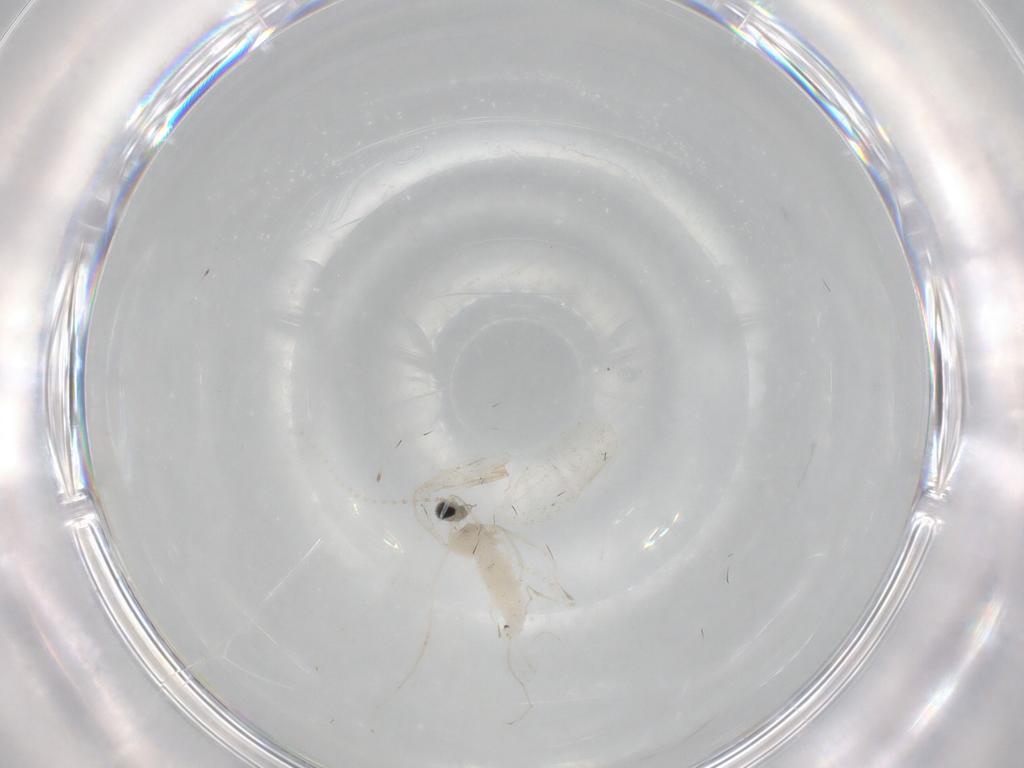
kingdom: Animalia
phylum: Arthropoda
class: Insecta
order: Diptera
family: Cecidomyiidae
